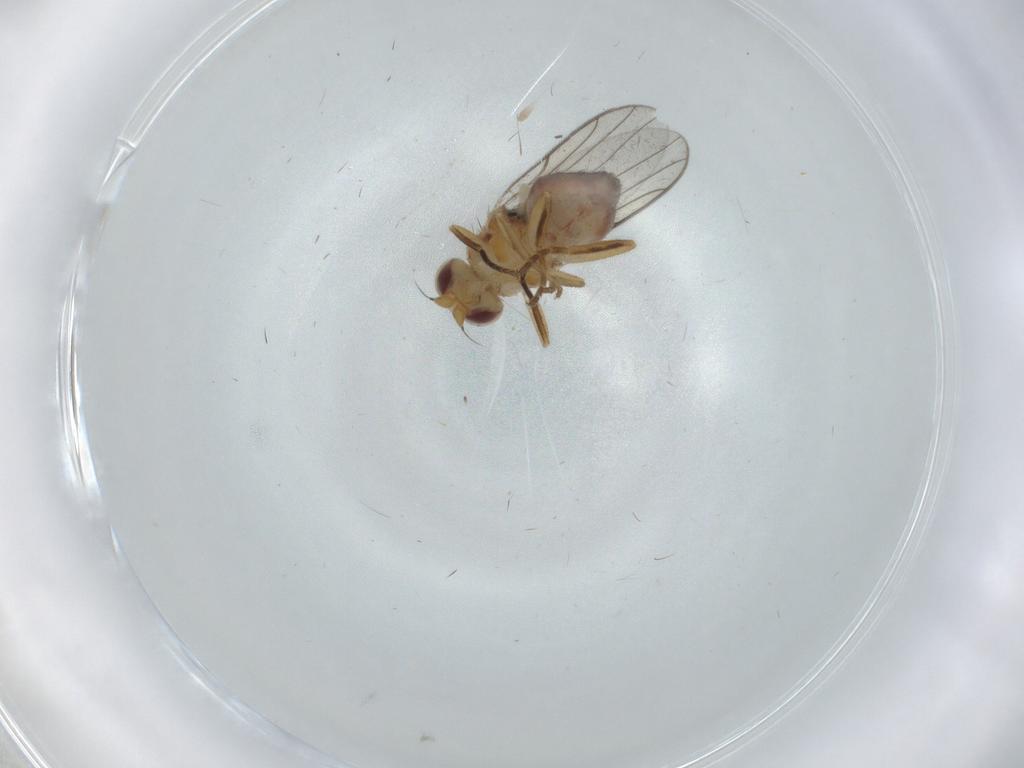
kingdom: Animalia
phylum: Arthropoda
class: Insecta
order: Diptera
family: Chloropidae
